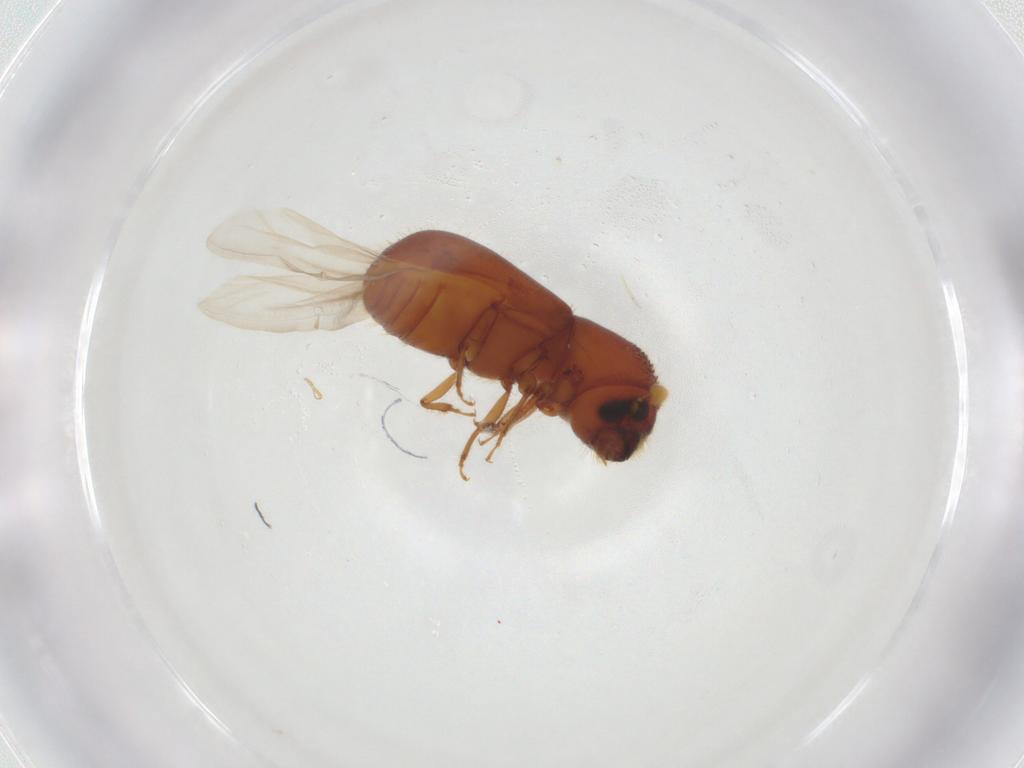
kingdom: Animalia
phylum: Arthropoda
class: Insecta
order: Coleoptera
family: Curculionidae
